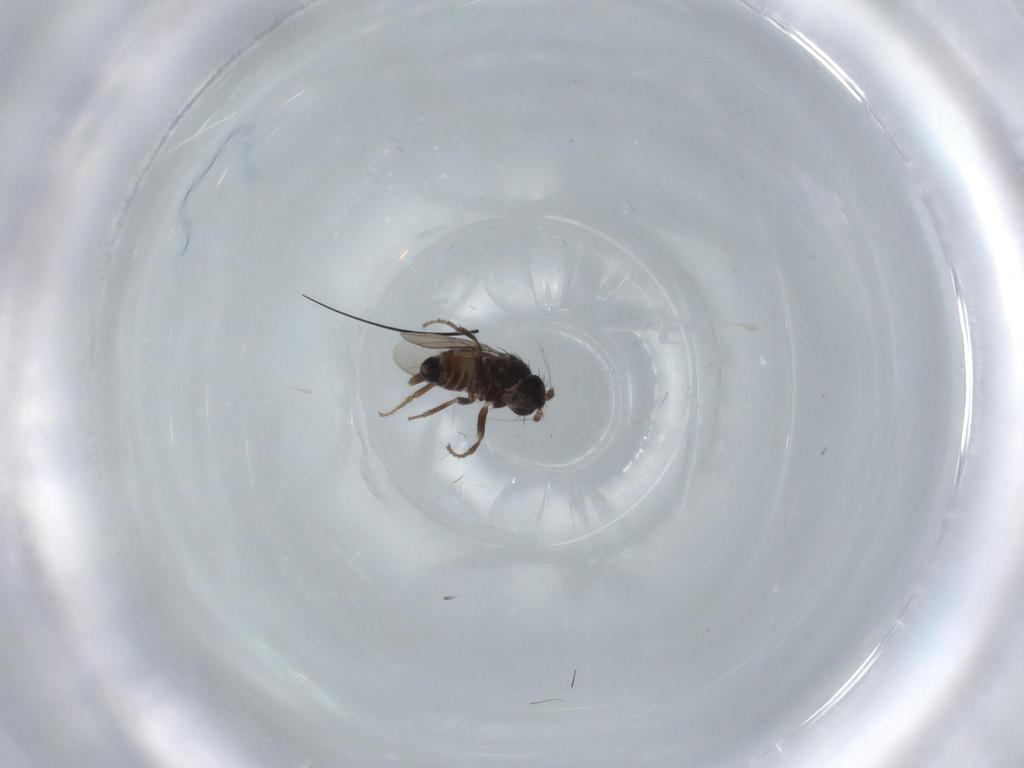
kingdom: Animalia
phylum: Arthropoda
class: Insecta
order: Diptera
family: Sphaeroceridae
